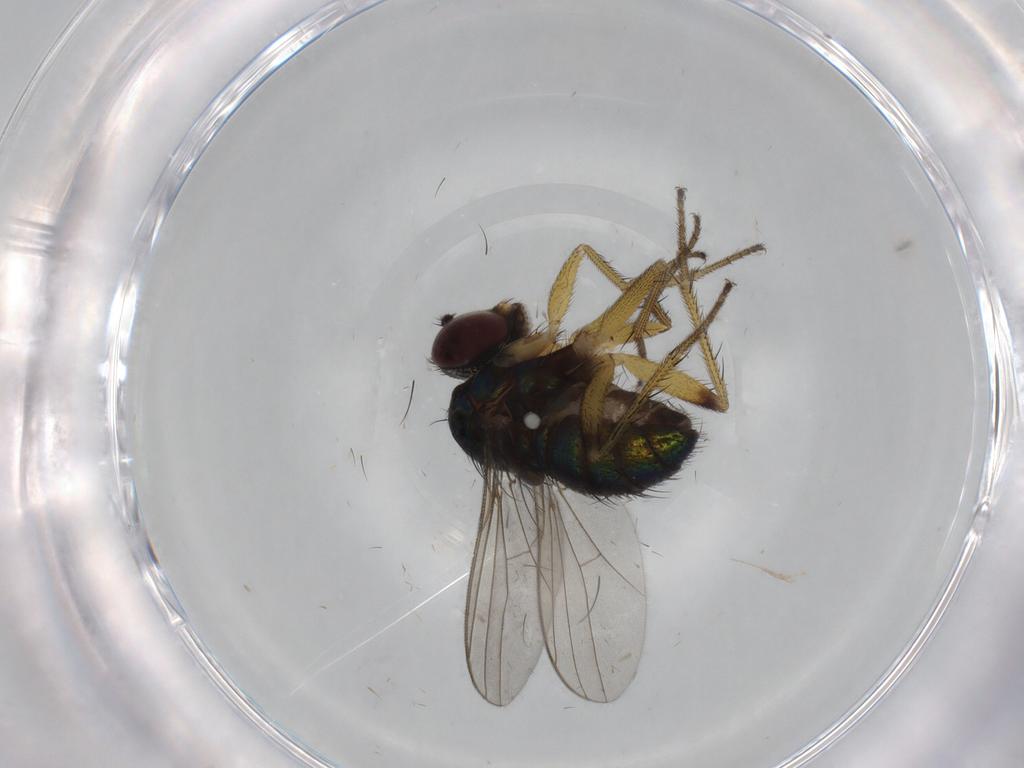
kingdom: Animalia
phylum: Arthropoda
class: Insecta
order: Diptera
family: Dolichopodidae
